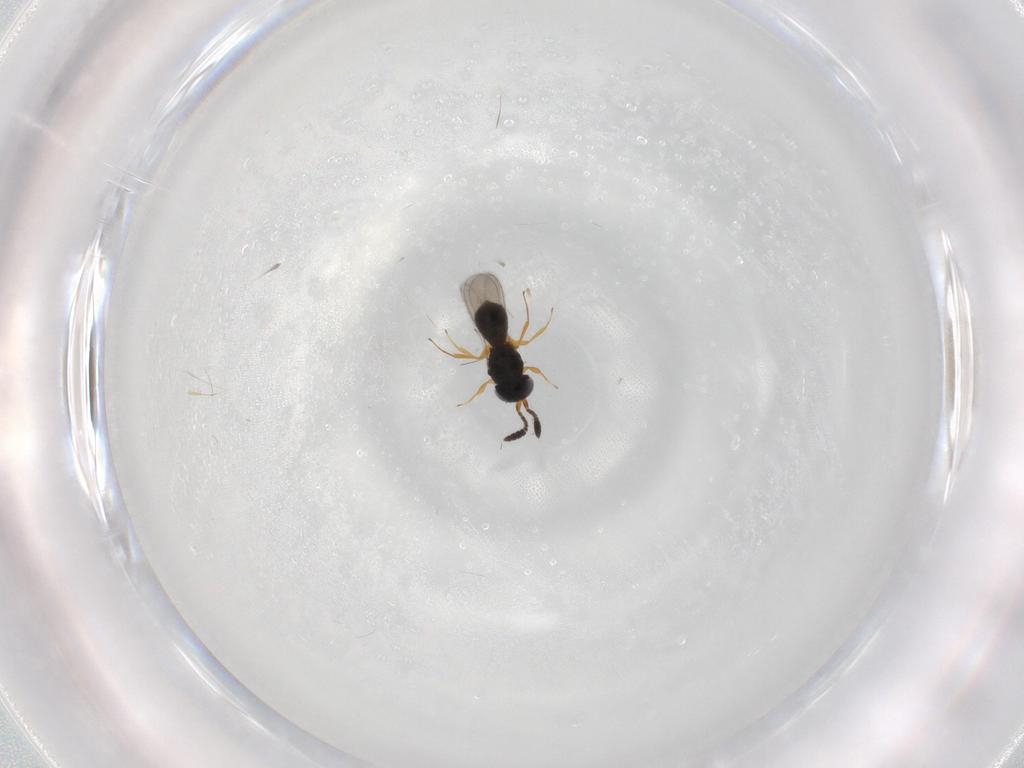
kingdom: Animalia
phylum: Arthropoda
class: Insecta
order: Hymenoptera
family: Scelionidae
